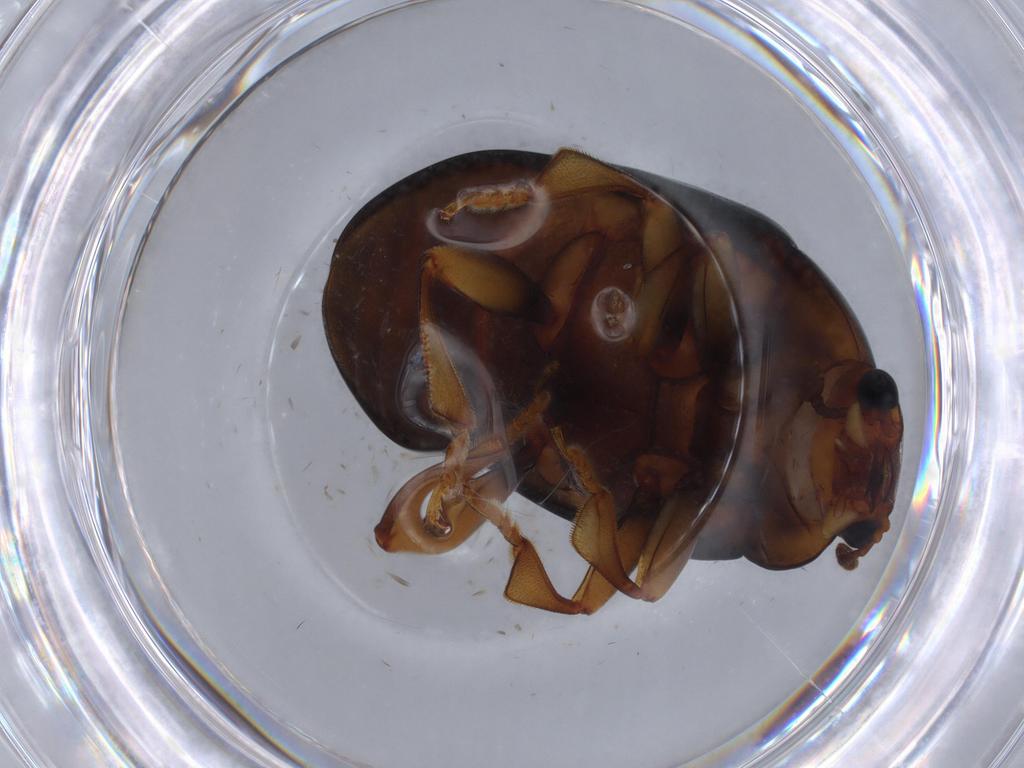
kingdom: Animalia
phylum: Arthropoda
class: Insecta
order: Coleoptera
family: Erotylidae
